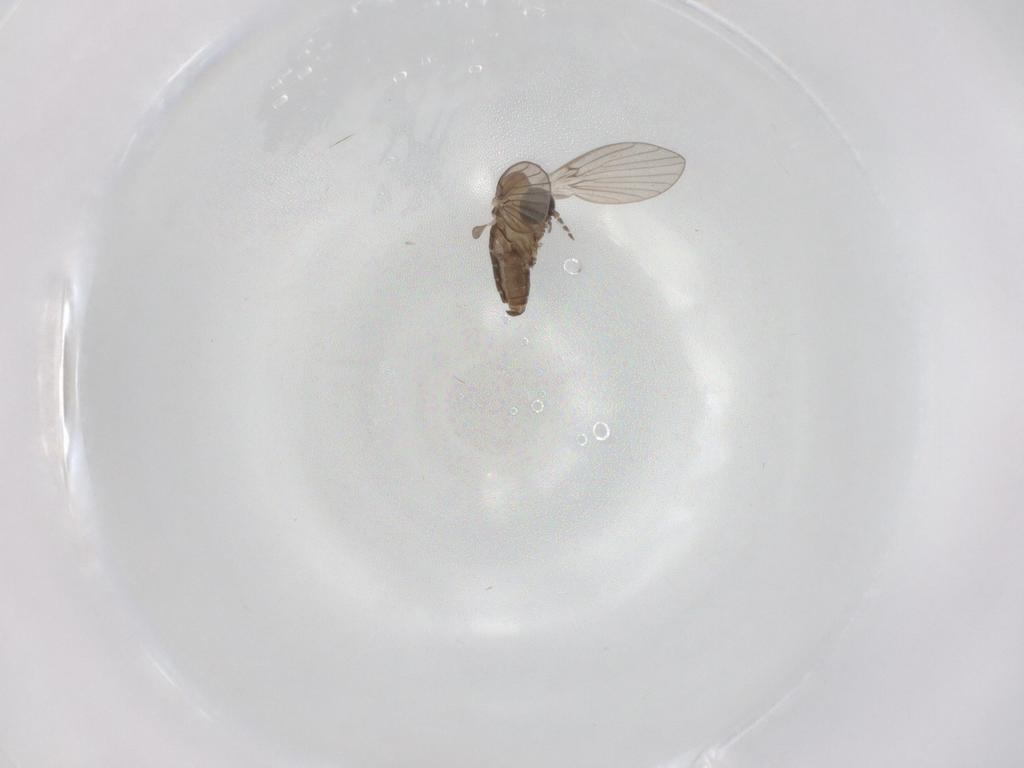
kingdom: Animalia
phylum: Arthropoda
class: Insecta
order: Diptera
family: Psychodidae
